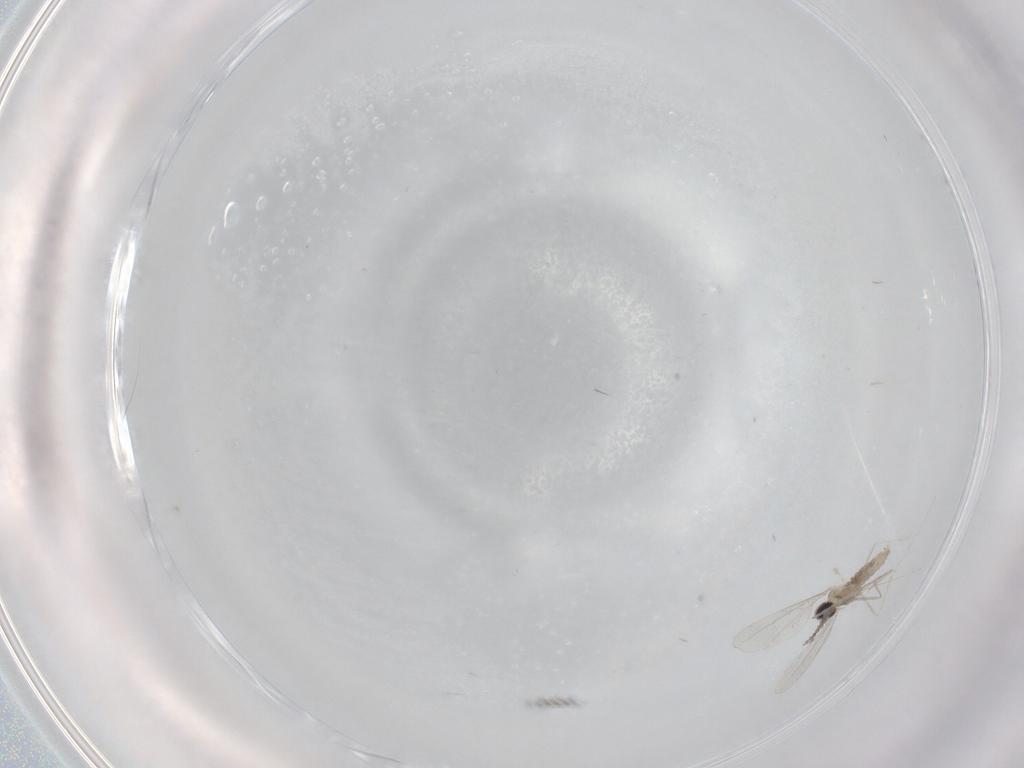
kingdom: Animalia
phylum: Arthropoda
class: Insecta
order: Diptera
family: Cecidomyiidae
